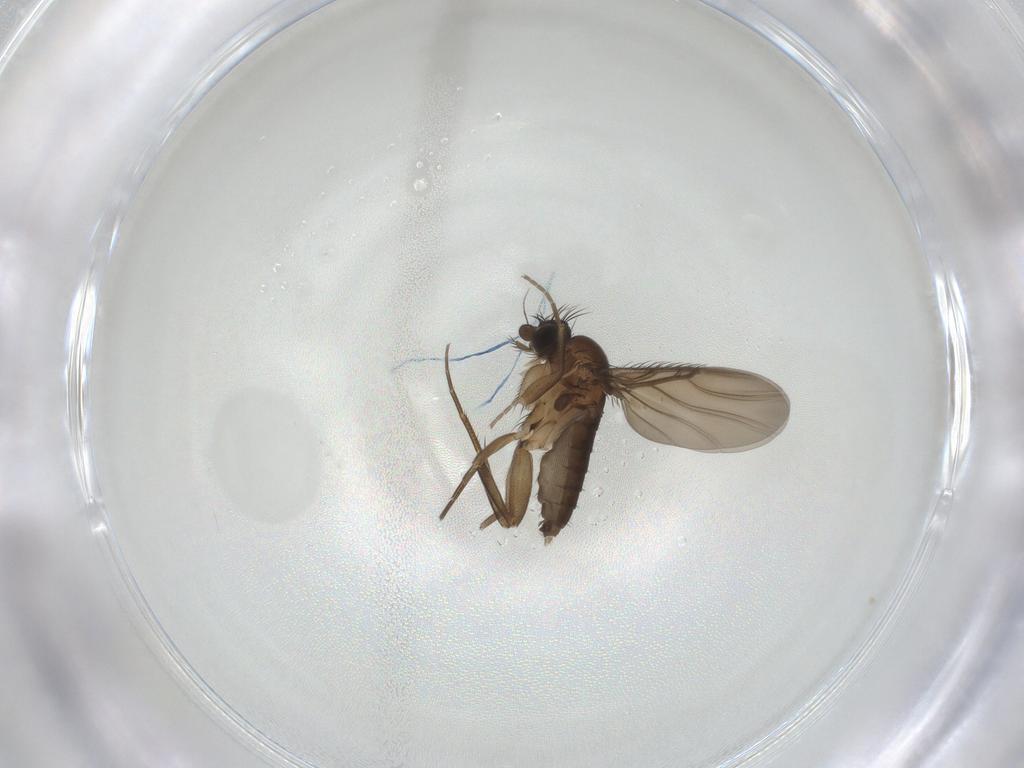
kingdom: Animalia
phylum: Arthropoda
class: Insecta
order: Diptera
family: Phoridae
